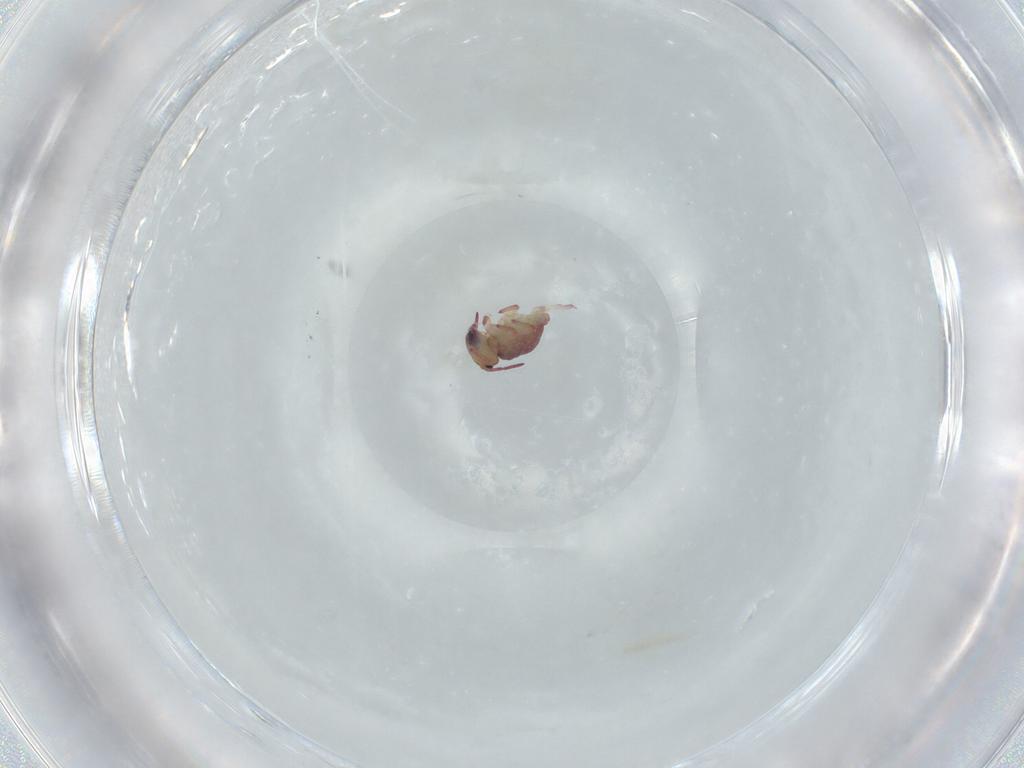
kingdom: Animalia
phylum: Arthropoda
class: Collembola
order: Symphypleona
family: Sminthurididae
